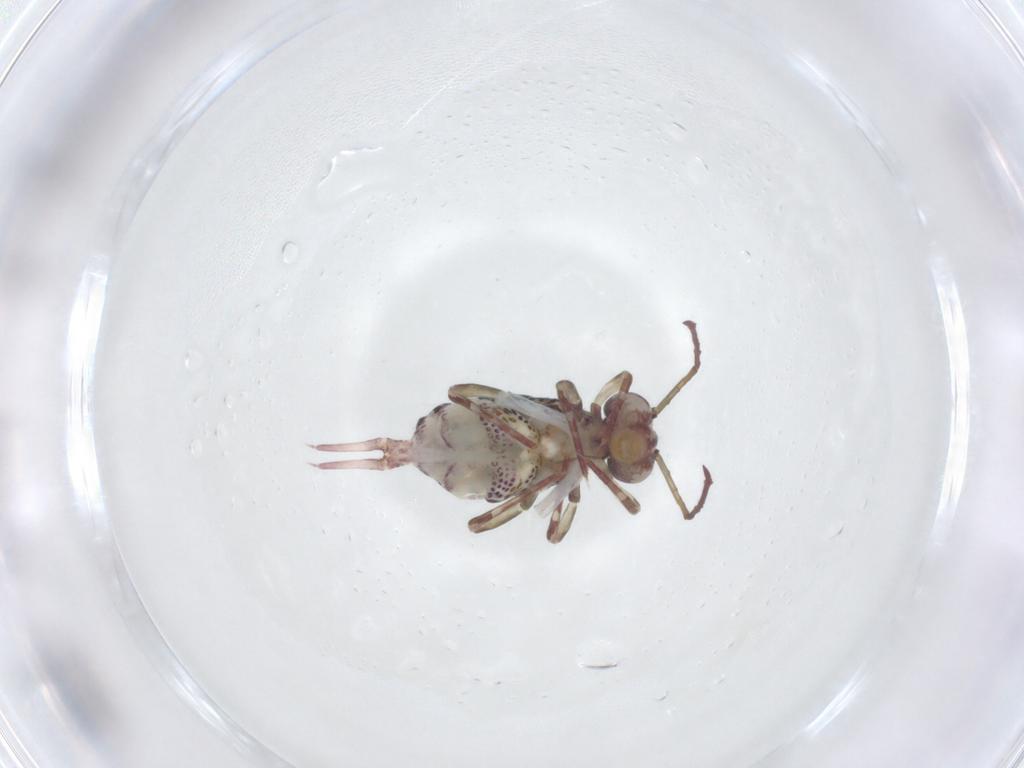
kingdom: Animalia
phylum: Arthropoda
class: Collembola
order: Symphypleona
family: Dicyrtomidae
